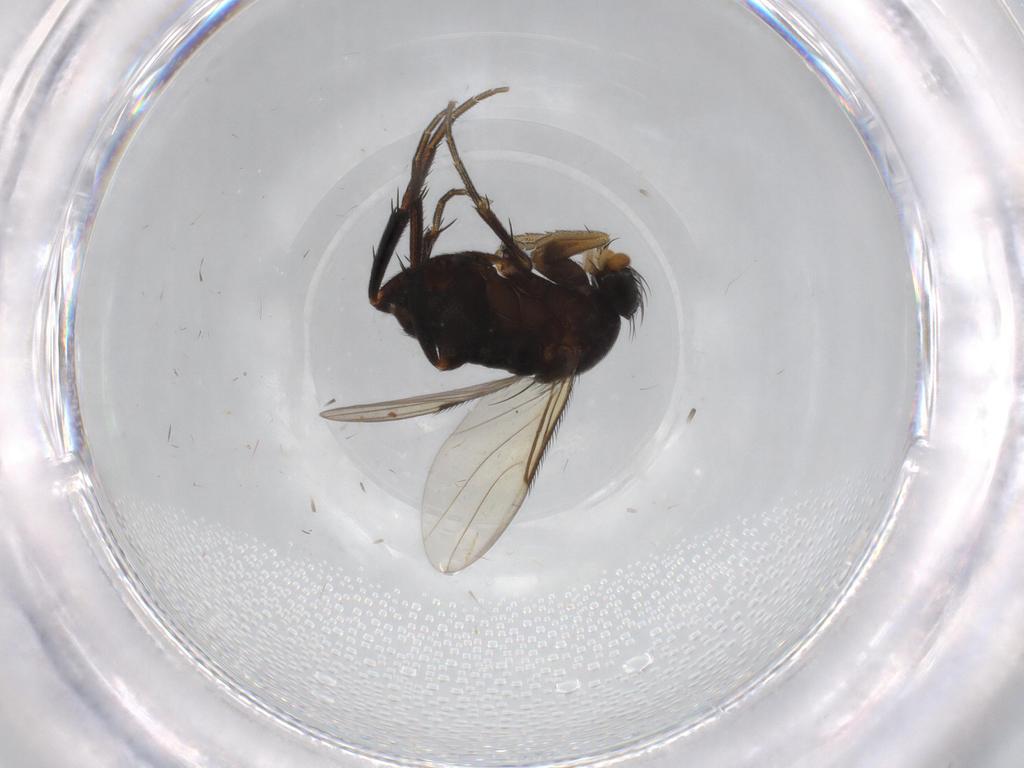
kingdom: Animalia
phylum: Arthropoda
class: Insecta
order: Diptera
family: Phoridae
